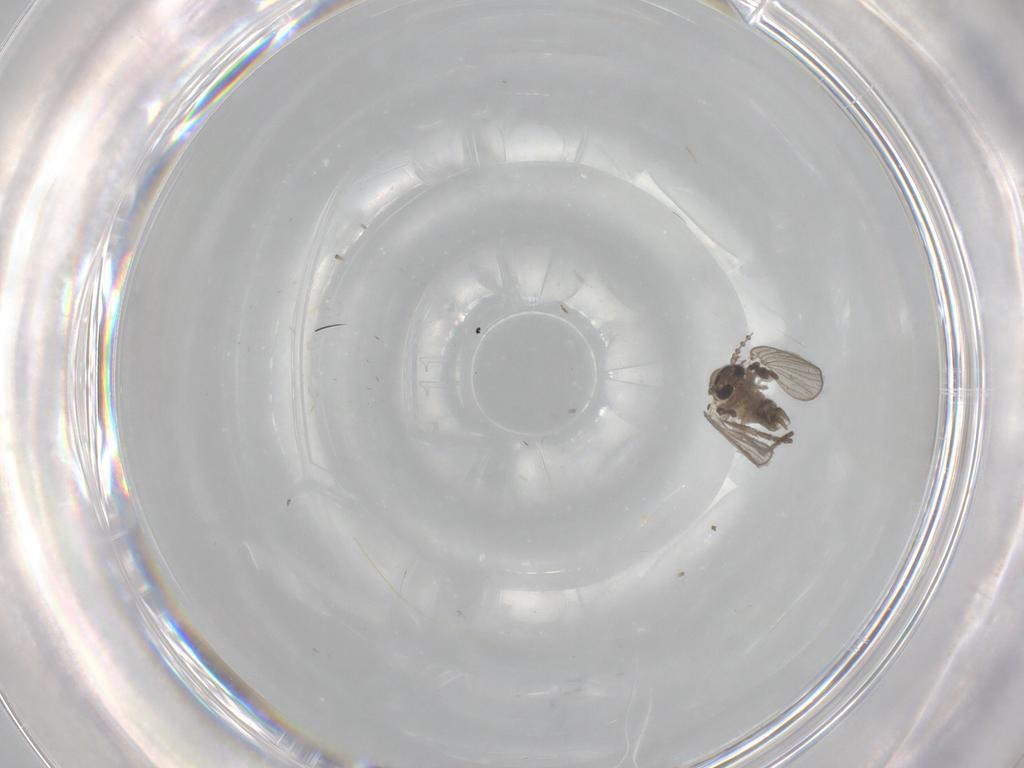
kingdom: Animalia
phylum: Arthropoda
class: Insecta
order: Diptera
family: Psychodidae
